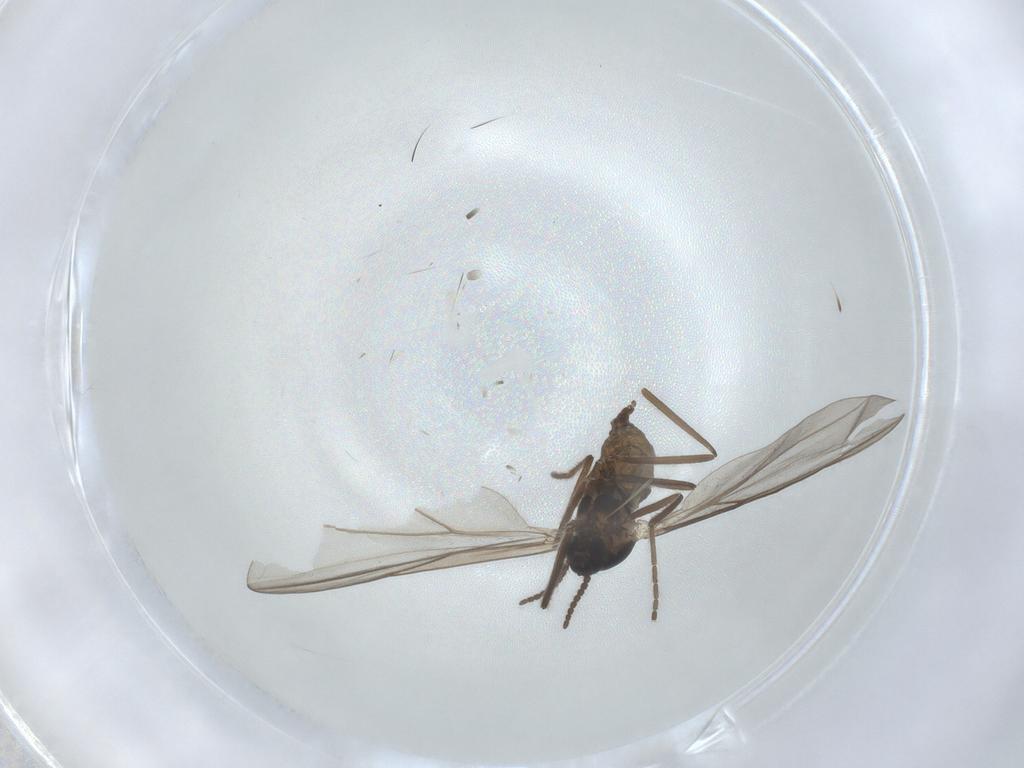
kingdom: Animalia
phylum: Arthropoda
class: Insecta
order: Diptera
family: Cecidomyiidae
